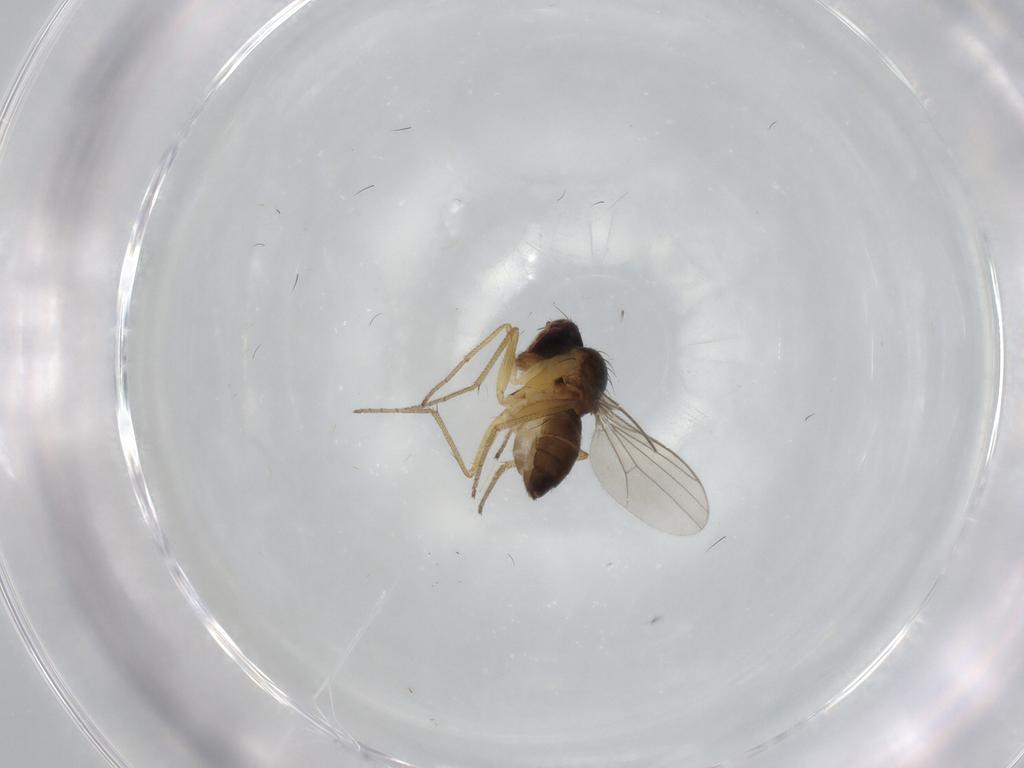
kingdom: Animalia
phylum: Arthropoda
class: Insecta
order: Diptera
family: Dolichopodidae
